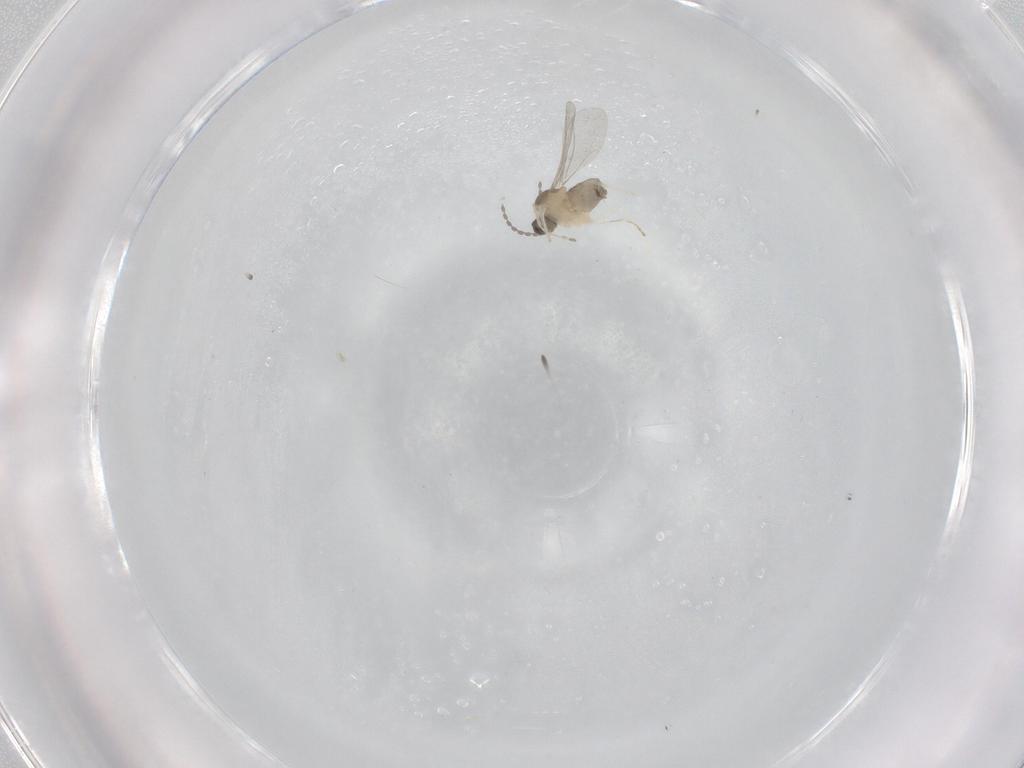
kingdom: Animalia
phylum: Arthropoda
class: Insecta
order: Diptera
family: Cecidomyiidae
